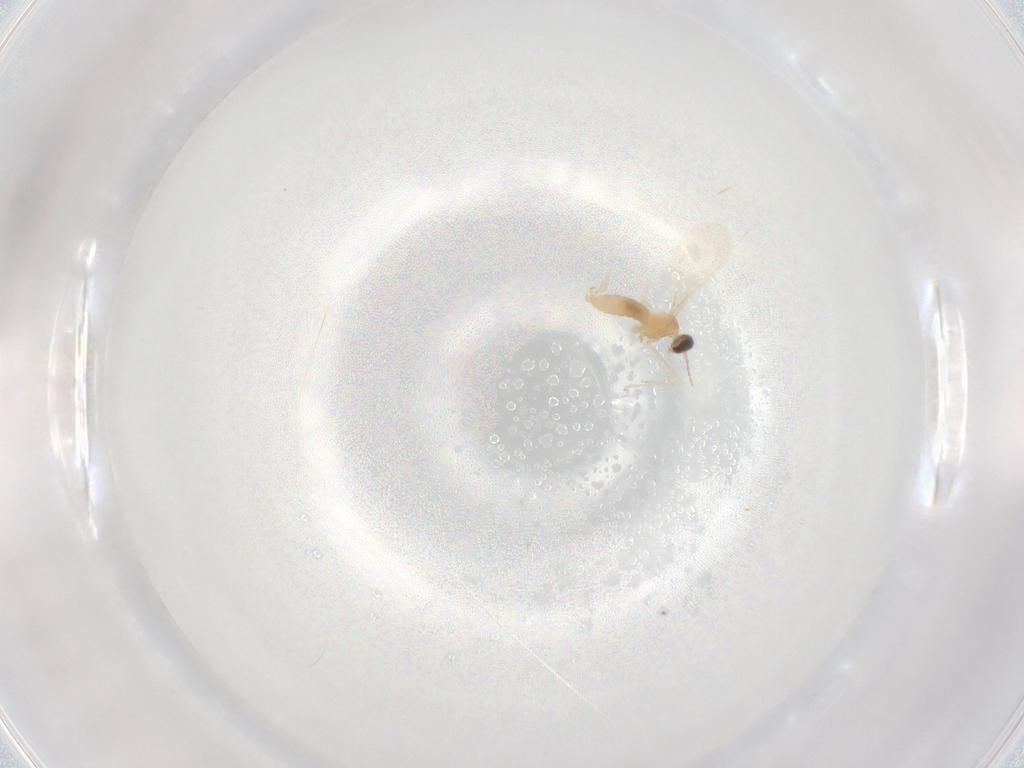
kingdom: Animalia
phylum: Arthropoda
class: Insecta
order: Diptera
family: Cecidomyiidae
